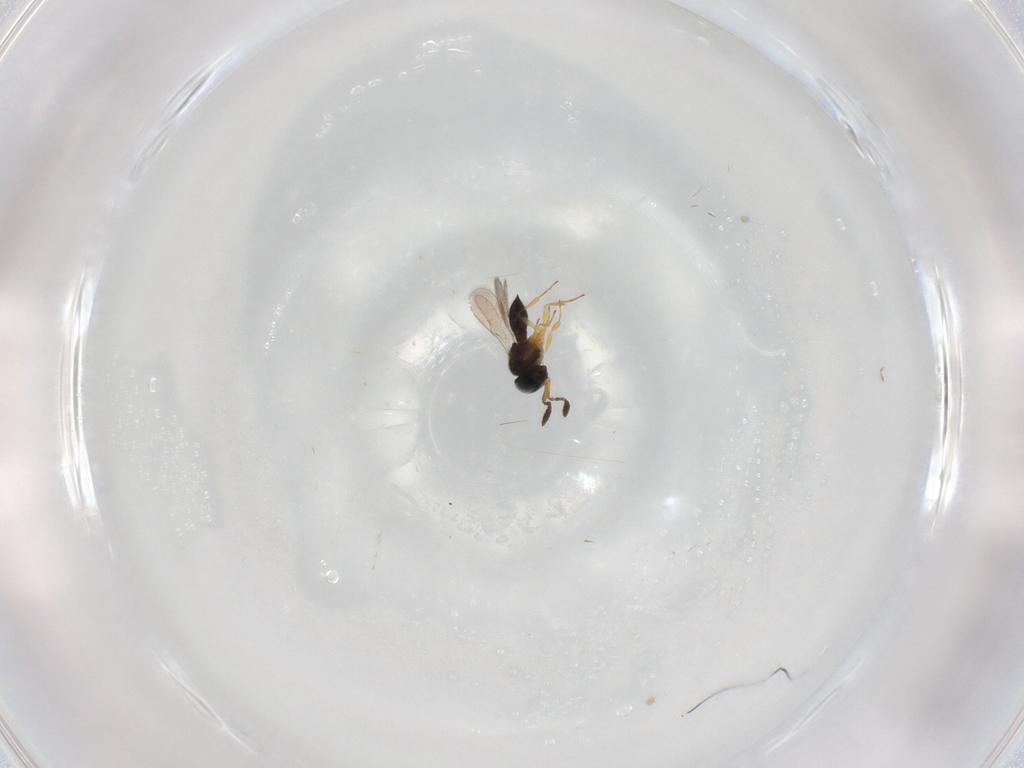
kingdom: Animalia
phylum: Arthropoda
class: Insecta
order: Hymenoptera
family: Scelionidae
